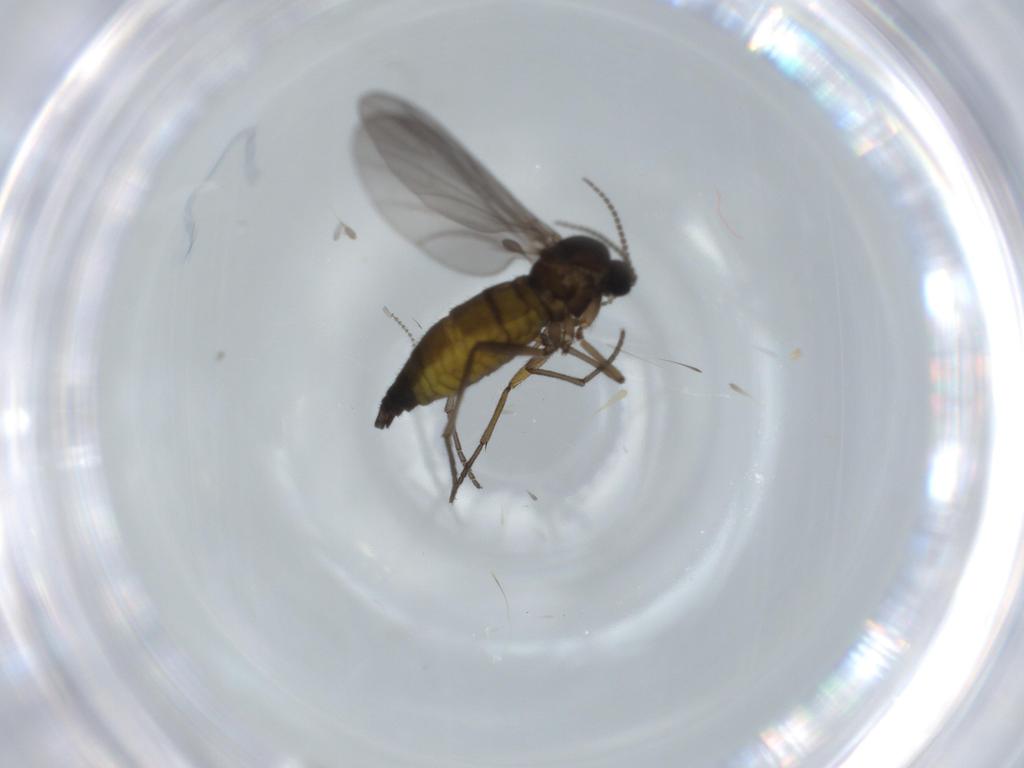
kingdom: Animalia
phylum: Arthropoda
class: Insecta
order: Diptera
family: Sciaridae
